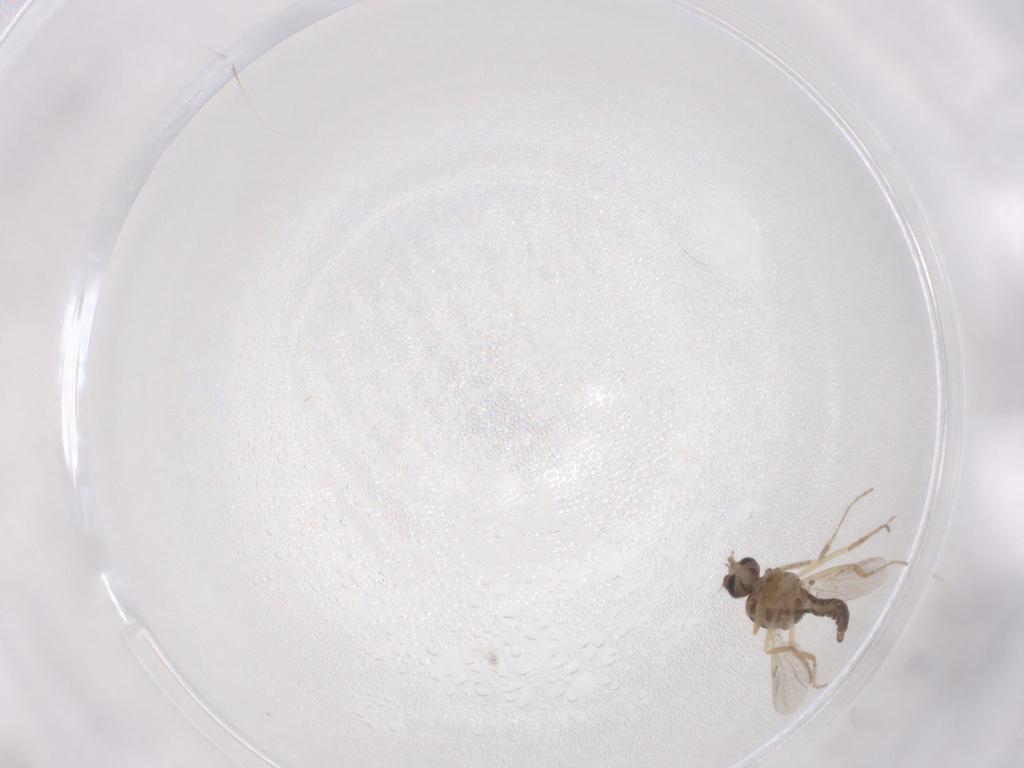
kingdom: Animalia
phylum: Arthropoda
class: Insecta
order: Diptera
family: Ceratopogonidae
